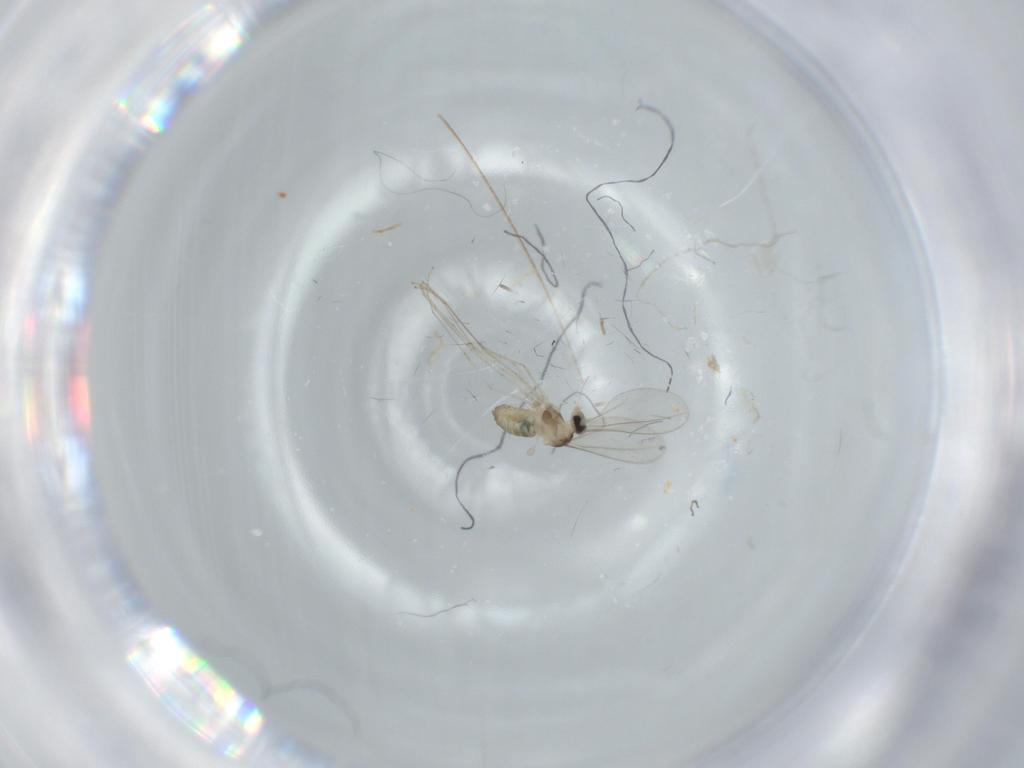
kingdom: Animalia
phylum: Arthropoda
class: Insecta
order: Diptera
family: Cecidomyiidae
